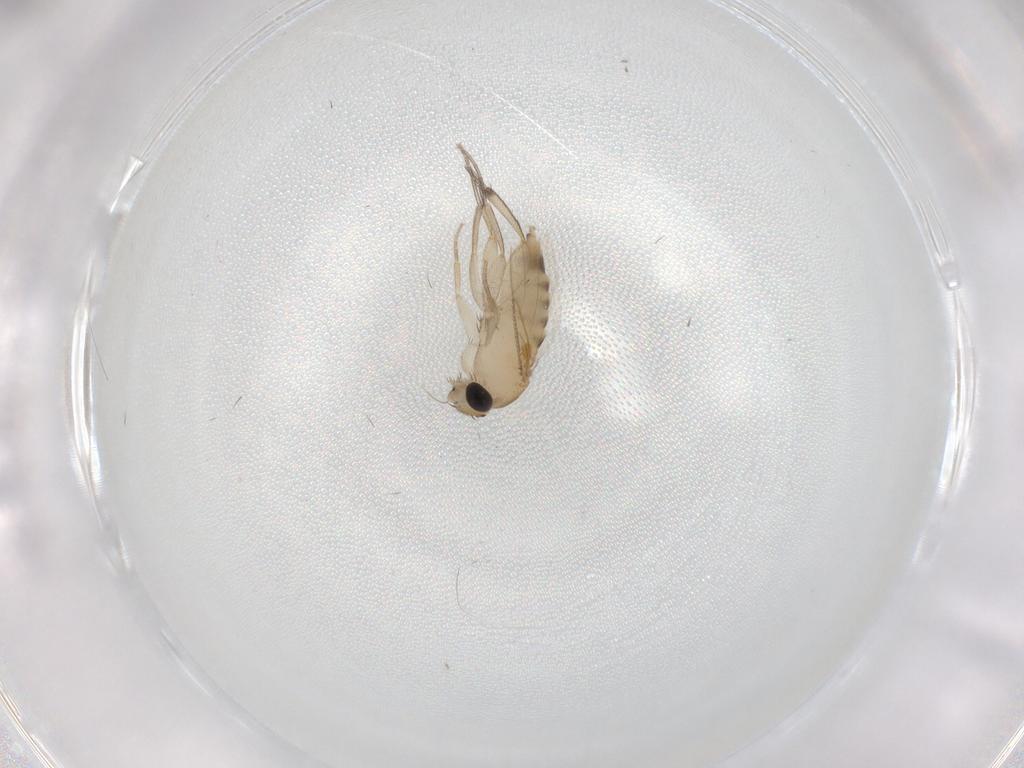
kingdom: Animalia
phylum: Arthropoda
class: Insecta
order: Diptera
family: Phoridae
